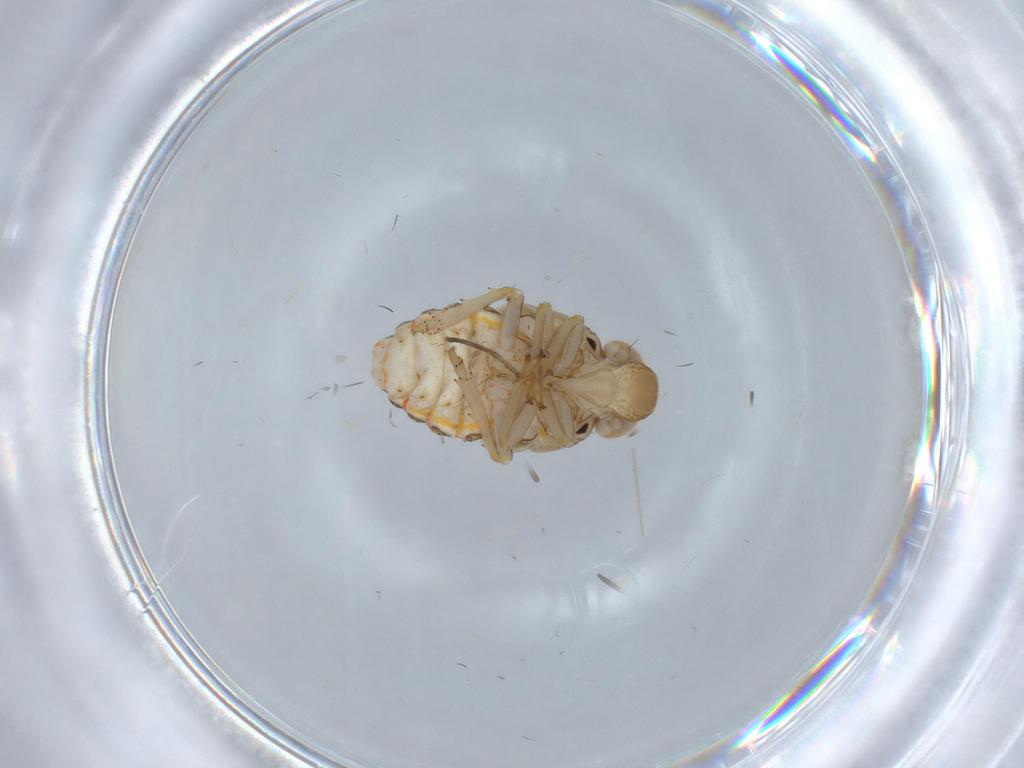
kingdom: Animalia
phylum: Arthropoda
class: Insecta
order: Hemiptera
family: Issidae
